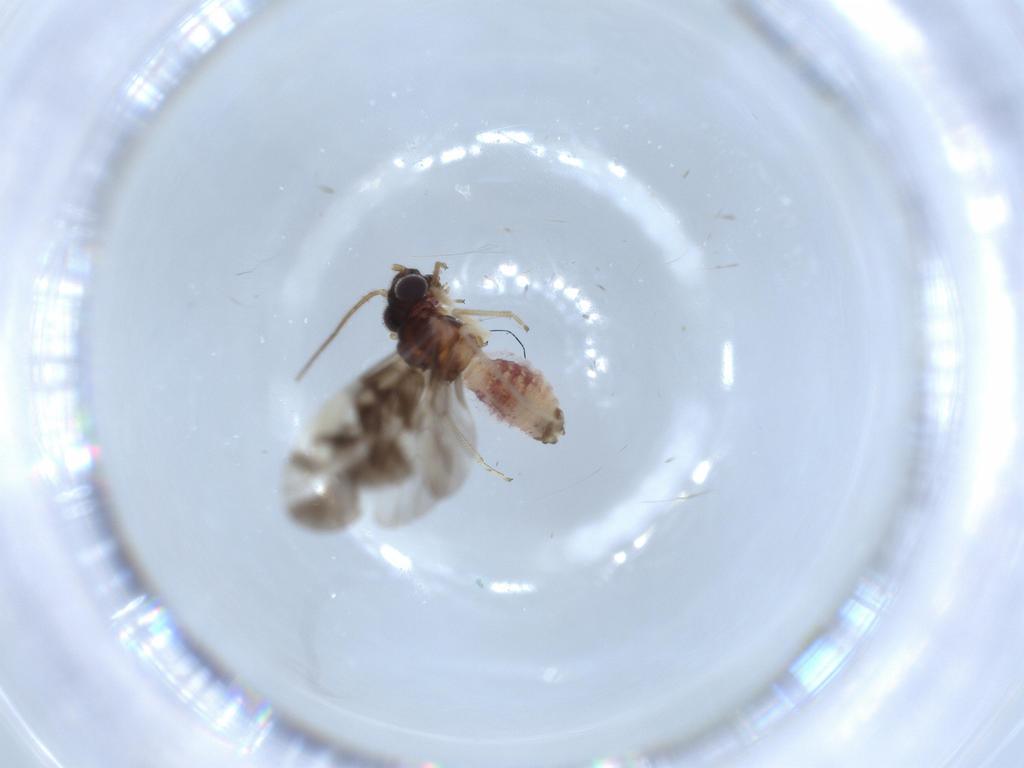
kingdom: Animalia
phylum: Arthropoda
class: Insecta
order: Psocodea
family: Caeciliusidae
